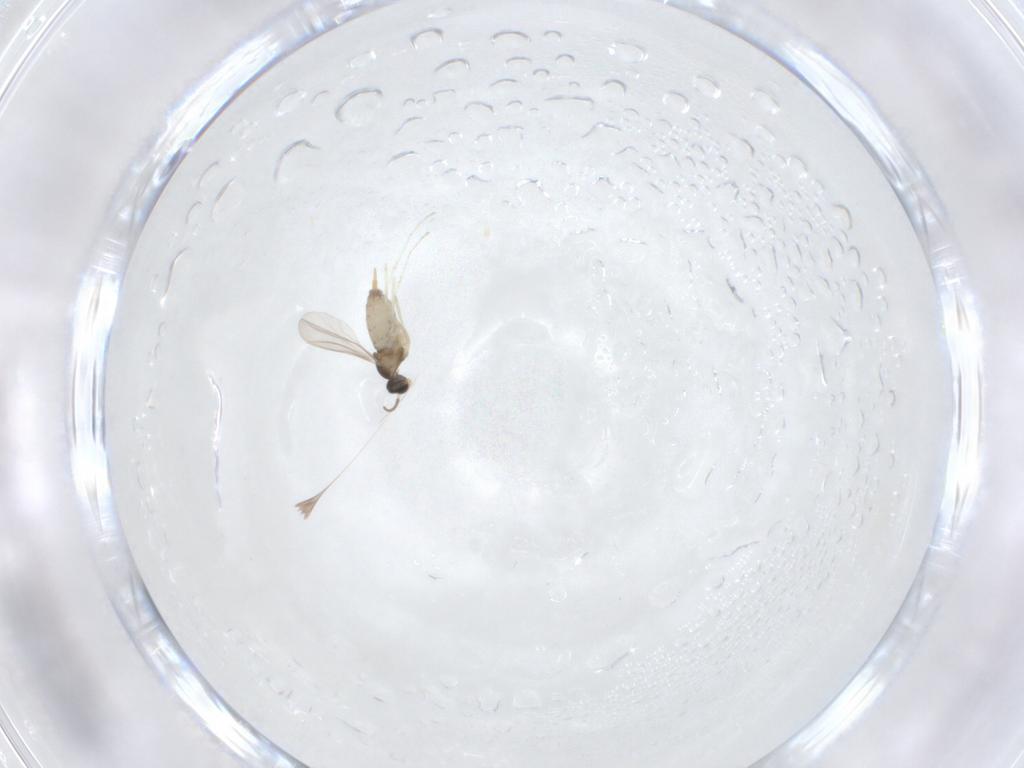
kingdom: Animalia
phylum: Arthropoda
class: Insecta
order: Diptera
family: Cecidomyiidae
